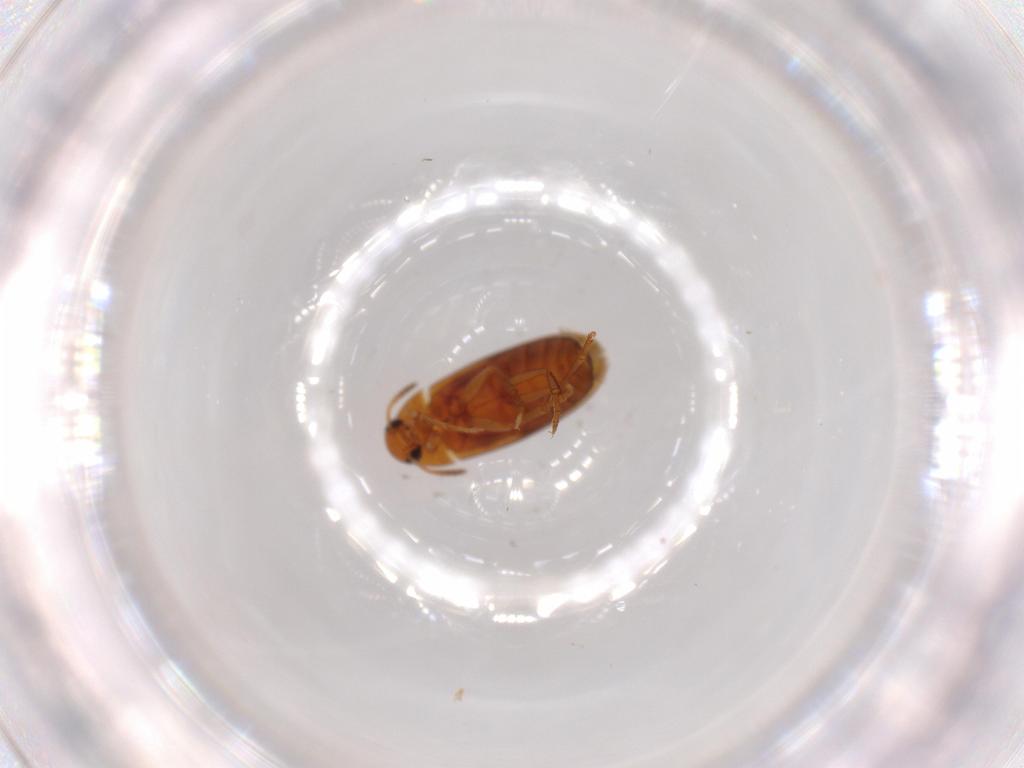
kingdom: Animalia
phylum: Arthropoda
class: Insecta
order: Coleoptera
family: Scraptiidae
